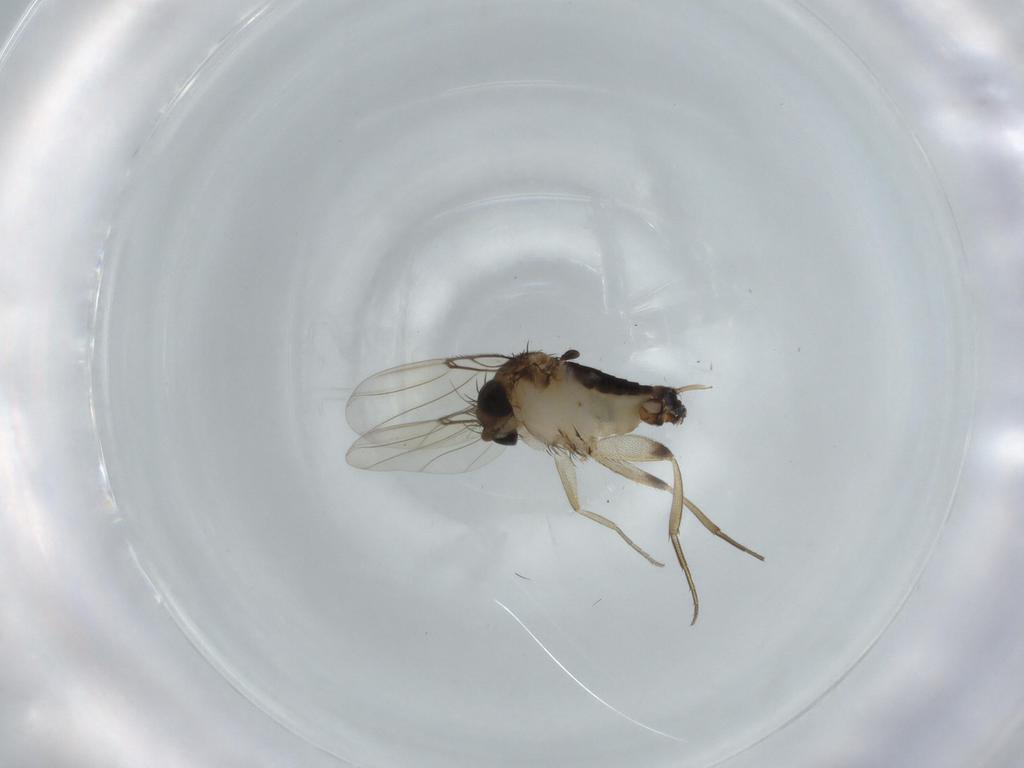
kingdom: Animalia
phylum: Arthropoda
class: Insecta
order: Diptera
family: Phoridae
